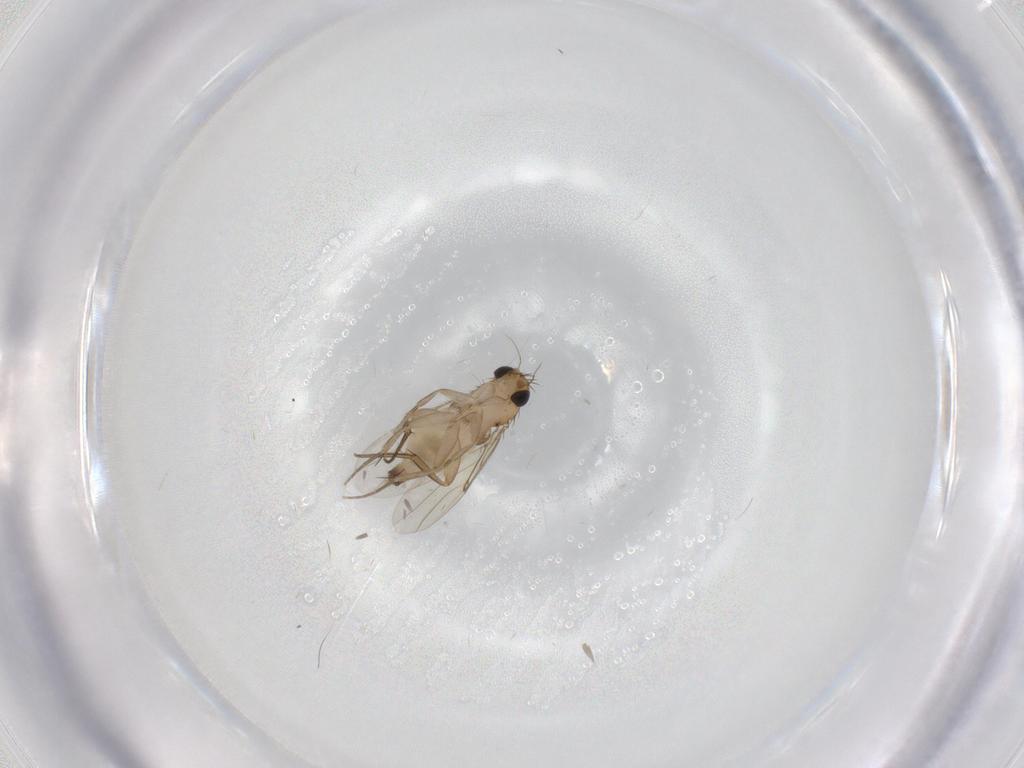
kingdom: Animalia
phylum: Arthropoda
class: Insecta
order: Diptera
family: Phoridae
